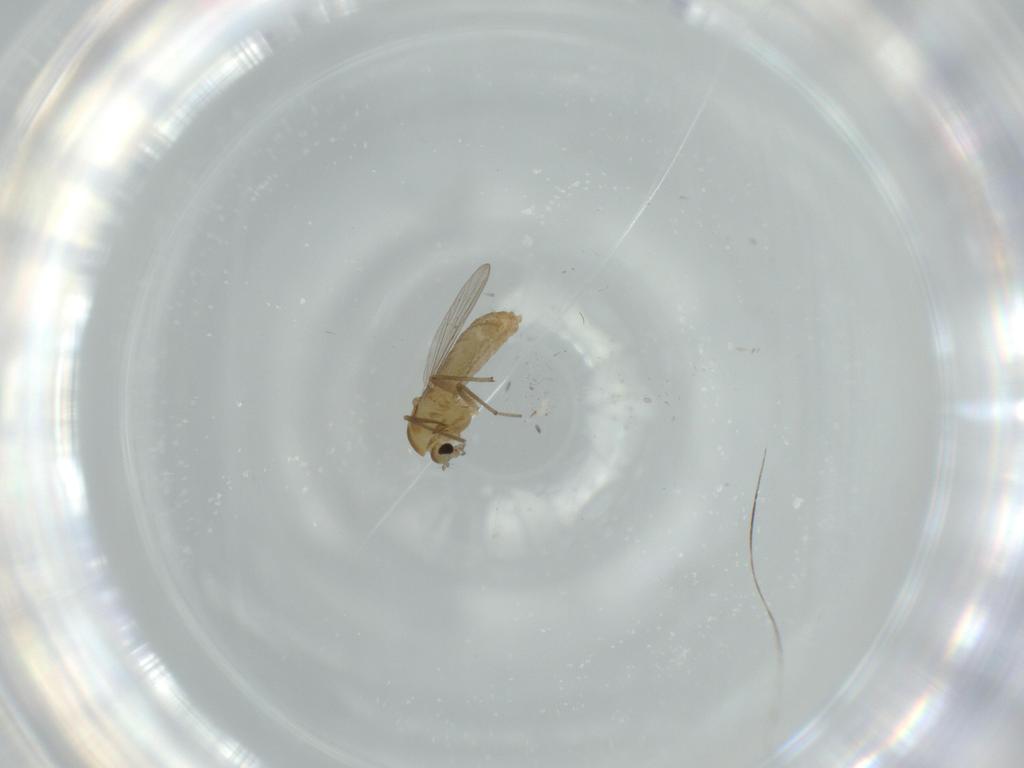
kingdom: Animalia
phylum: Arthropoda
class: Insecta
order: Diptera
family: Chironomidae
